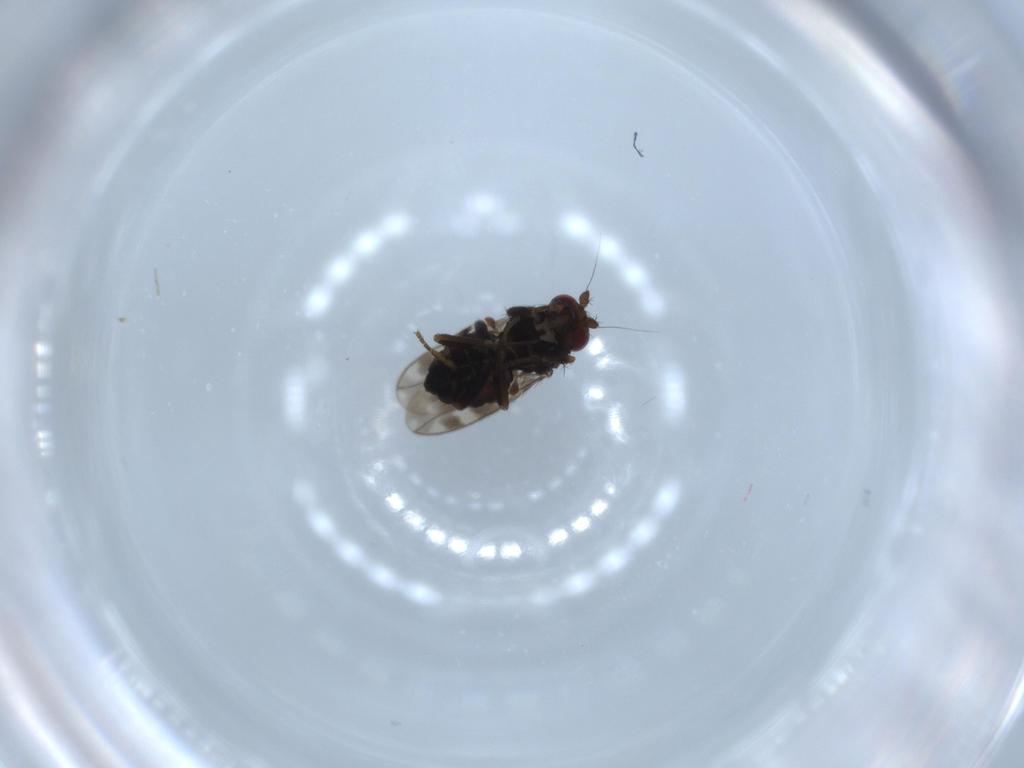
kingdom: Animalia
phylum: Arthropoda
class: Insecta
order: Diptera
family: Sphaeroceridae
